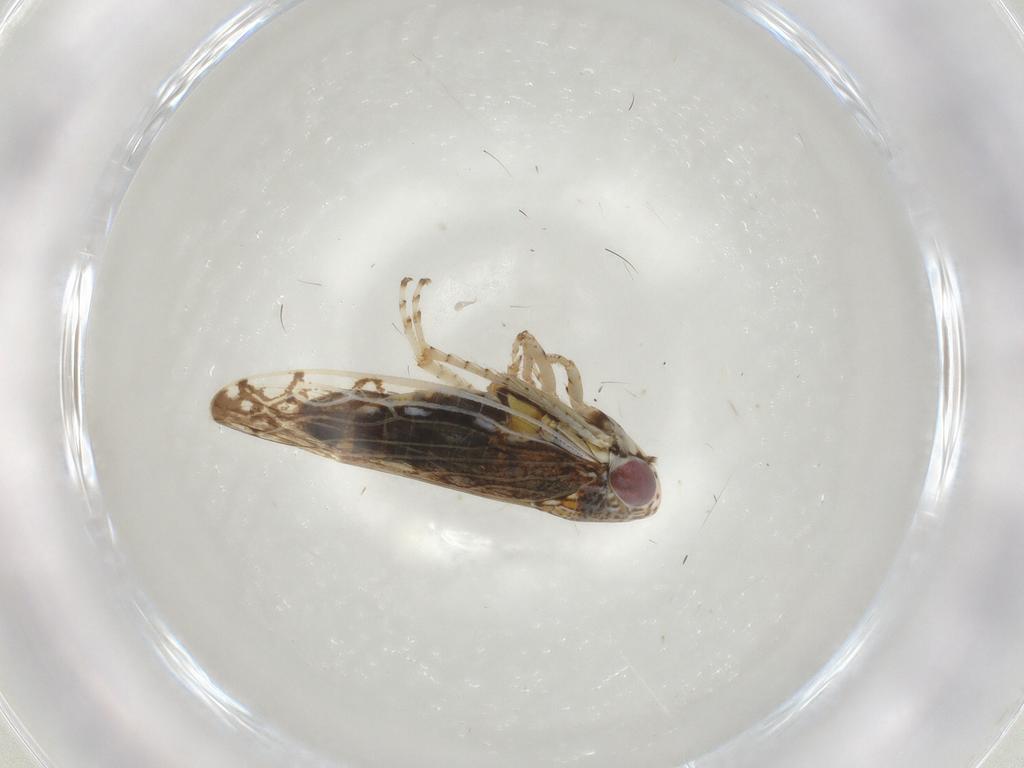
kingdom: Animalia
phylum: Arthropoda
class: Insecta
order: Hemiptera
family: Cicadellidae
